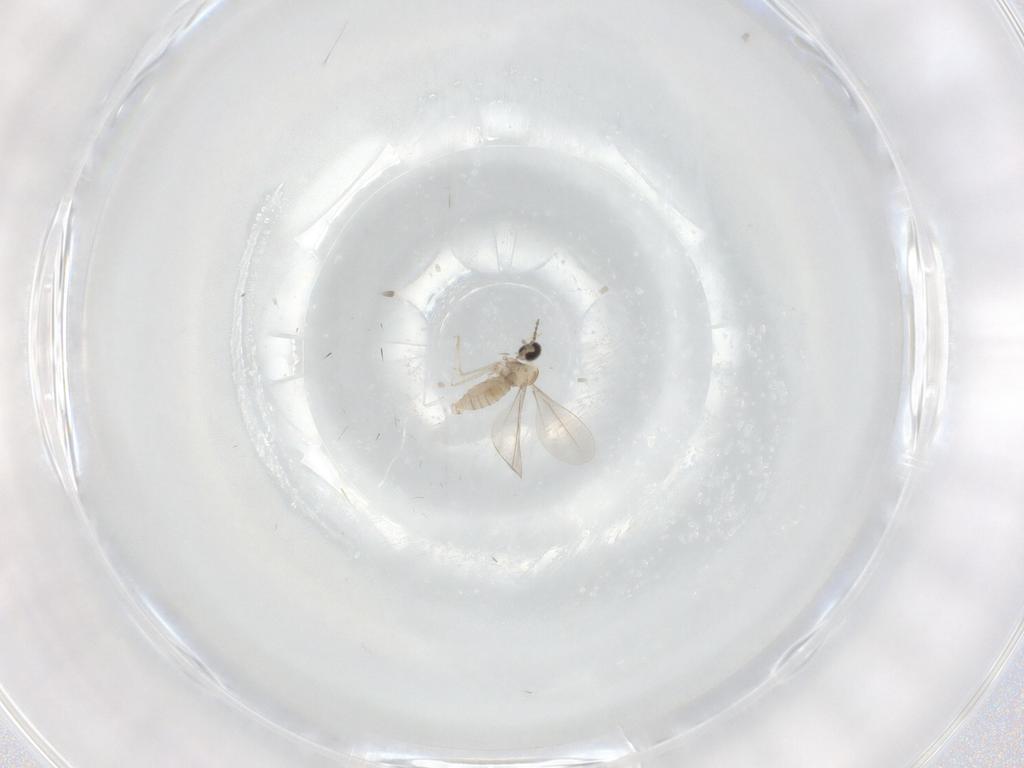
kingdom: Animalia
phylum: Arthropoda
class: Insecta
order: Diptera
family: Cecidomyiidae
